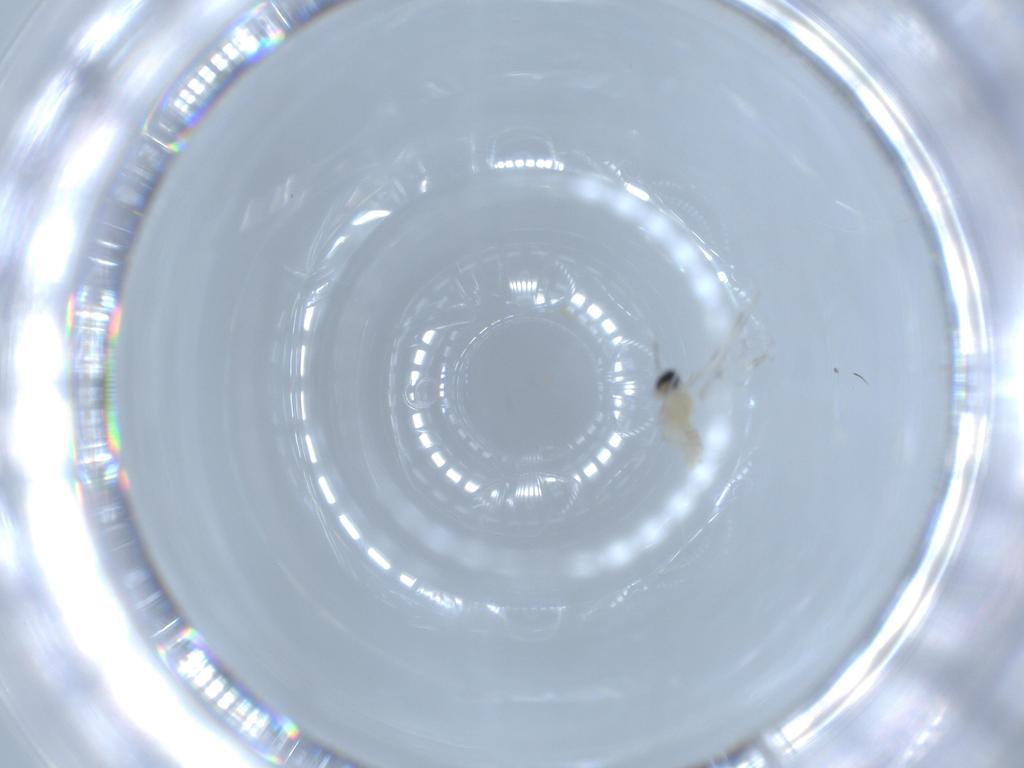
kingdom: Animalia
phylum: Arthropoda
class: Insecta
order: Diptera
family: Cecidomyiidae
